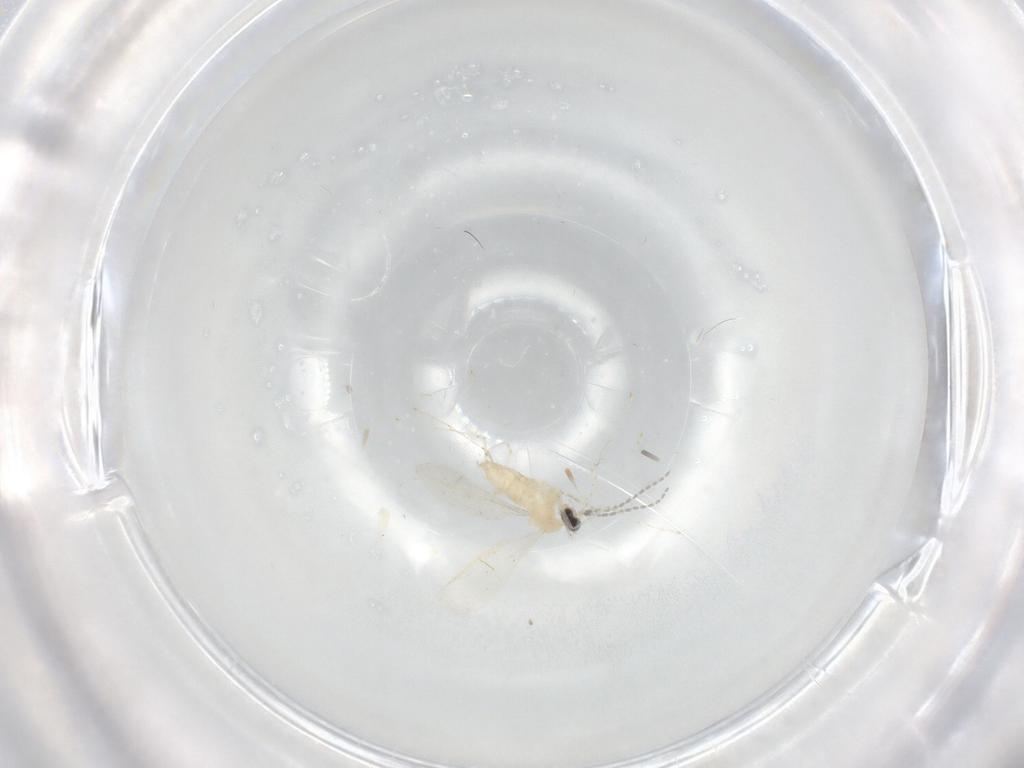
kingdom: Animalia
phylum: Arthropoda
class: Insecta
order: Diptera
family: Cecidomyiidae
